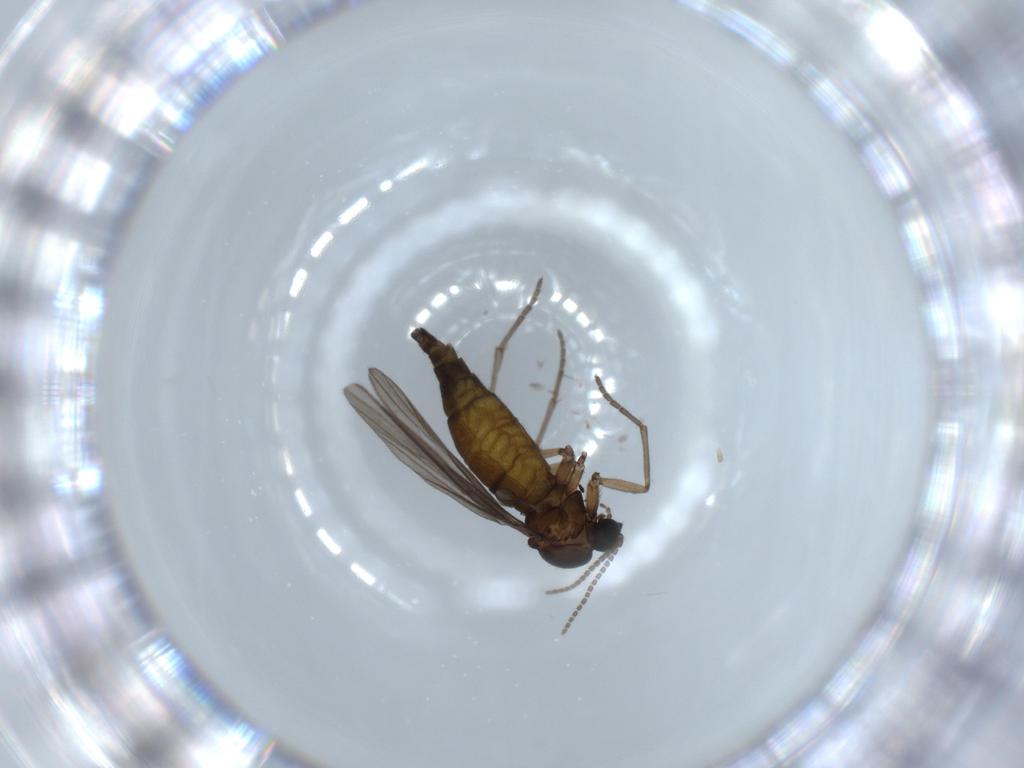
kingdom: Animalia
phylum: Arthropoda
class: Insecta
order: Diptera
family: Sciaridae
